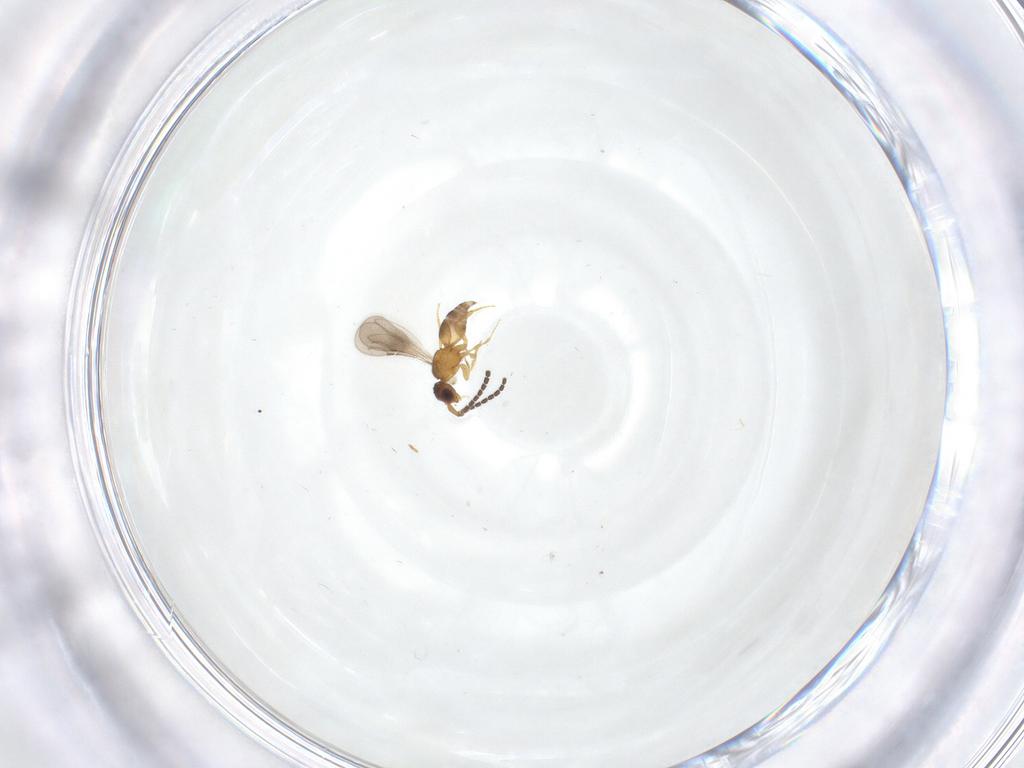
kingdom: Animalia
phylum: Arthropoda
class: Insecta
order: Hymenoptera
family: Ceraphronidae
